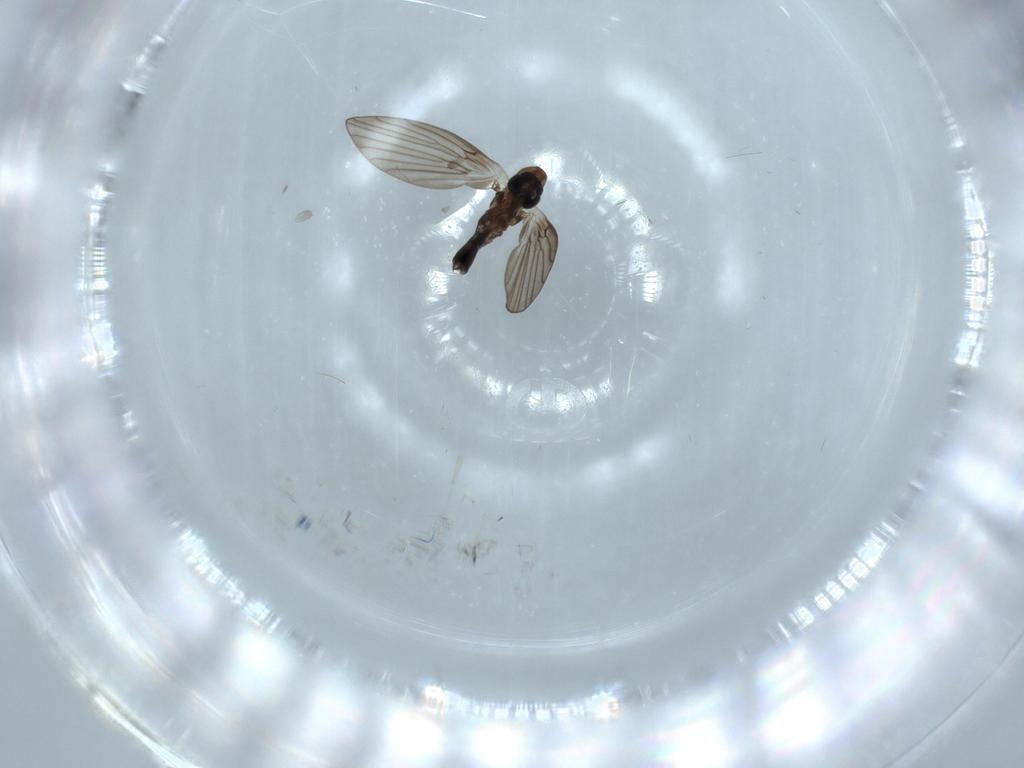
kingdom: Animalia
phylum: Arthropoda
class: Insecta
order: Diptera
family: Psychodidae
